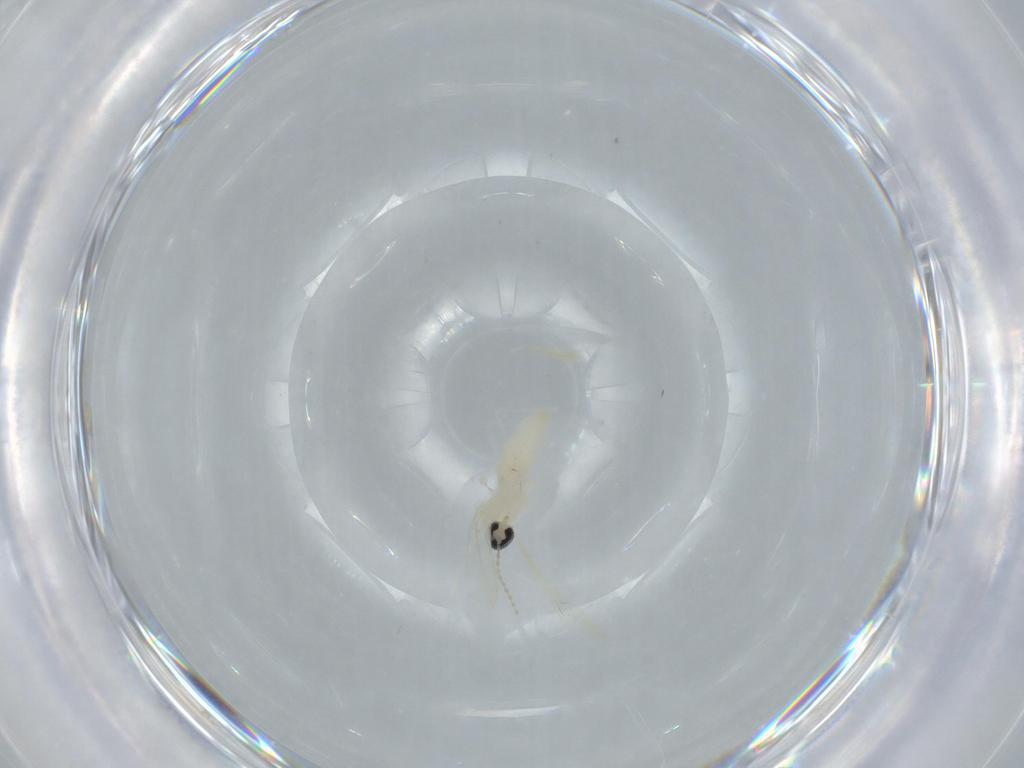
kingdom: Animalia
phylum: Arthropoda
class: Insecta
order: Diptera
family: Cecidomyiidae
